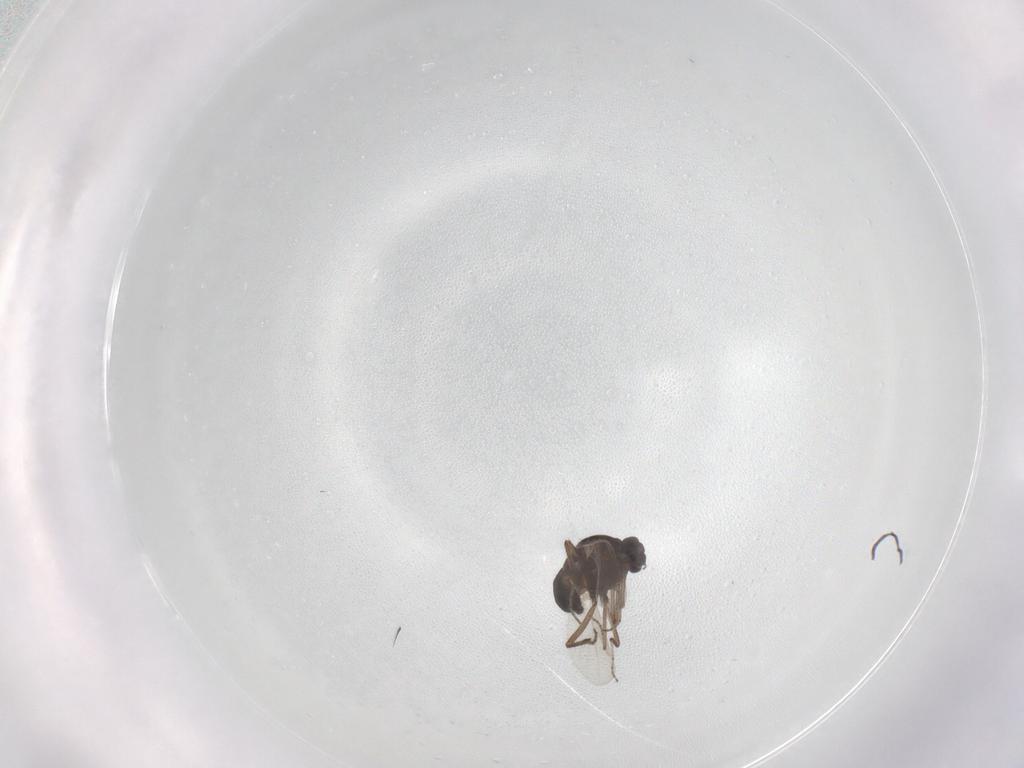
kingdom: Animalia
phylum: Arthropoda
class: Insecta
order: Diptera
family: Ceratopogonidae
